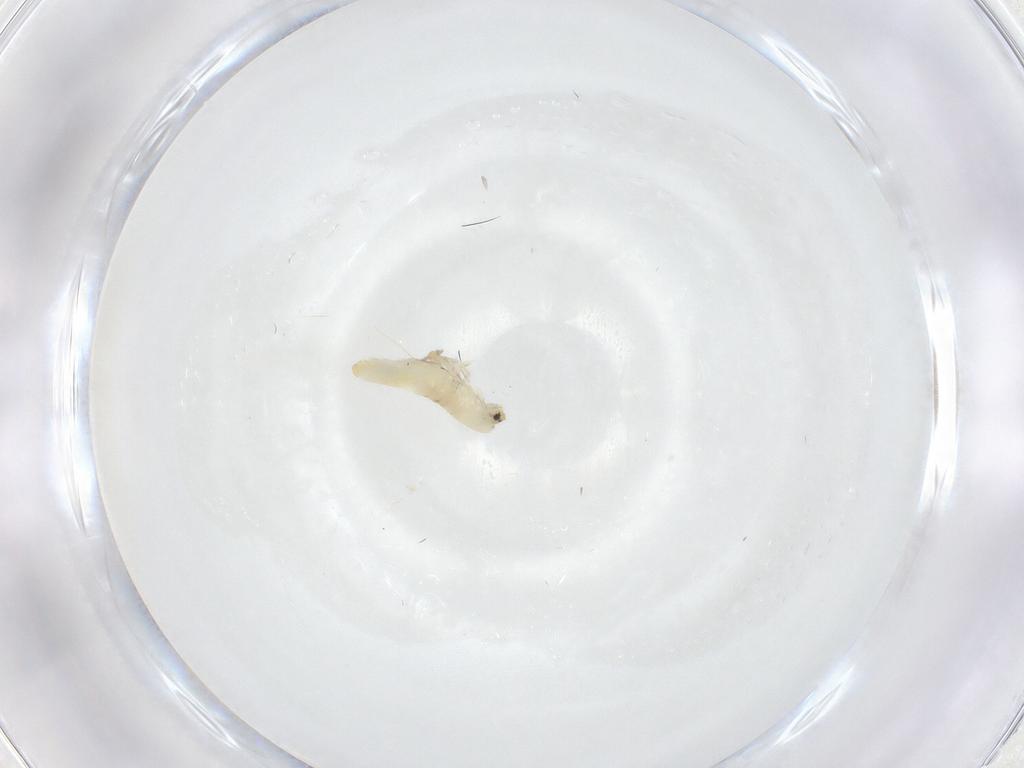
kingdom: Animalia
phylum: Arthropoda
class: Collembola
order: Entomobryomorpha
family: Entomobryidae
